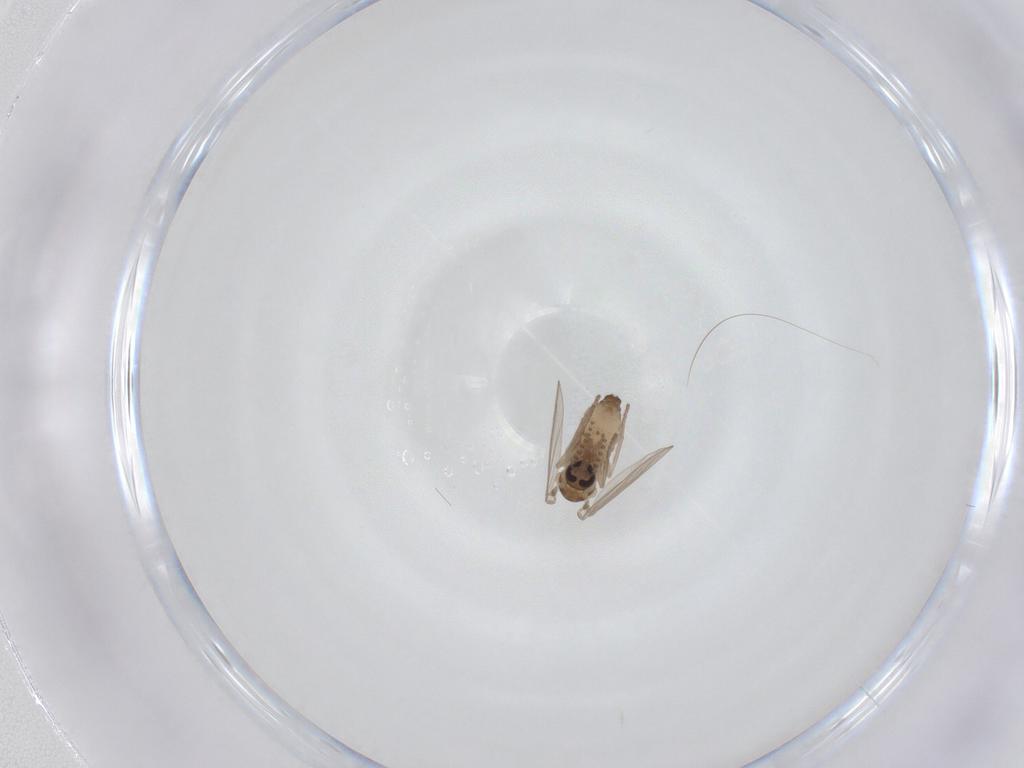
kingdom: Animalia
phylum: Arthropoda
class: Insecta
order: Diptera
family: Psychodidae
